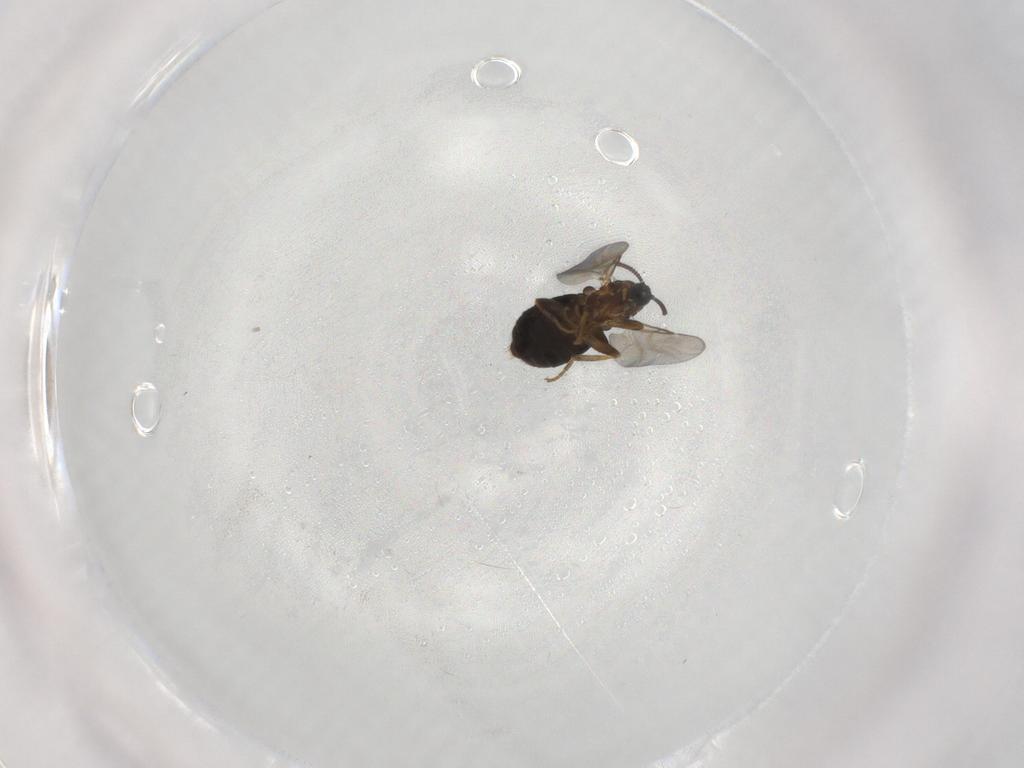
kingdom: Animalia
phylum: Arthropoda
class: Insecta
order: Diptera
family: Scatopsidae
